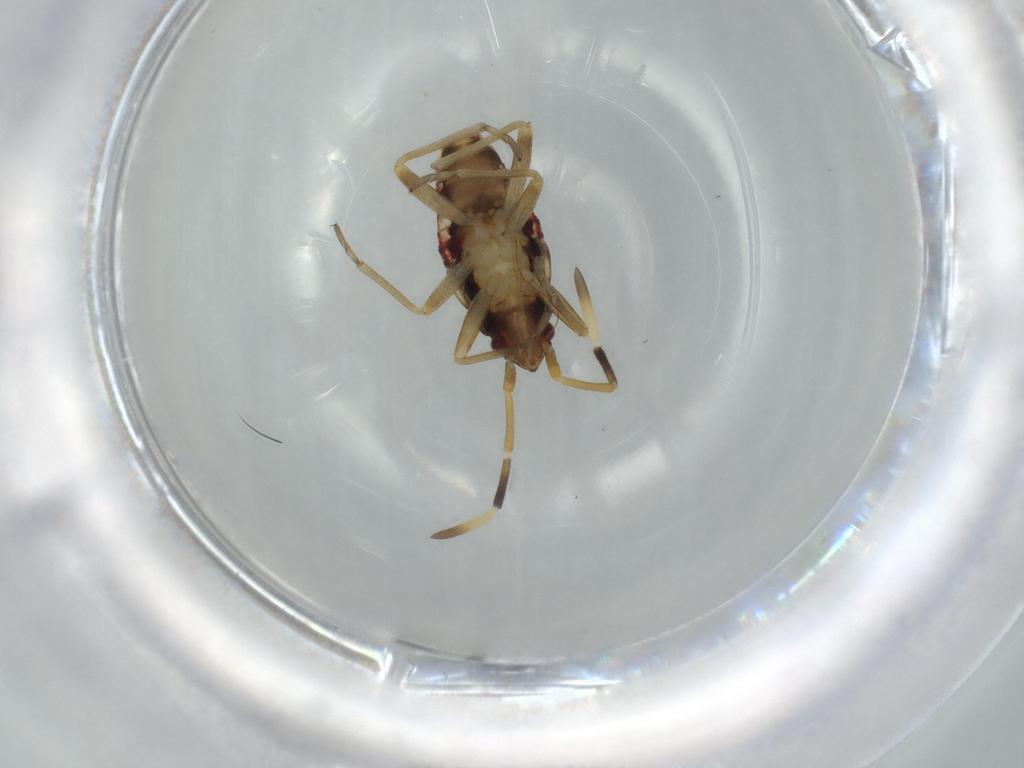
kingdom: Animalia
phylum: Arthropoda
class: Insecta
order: Hemiptera
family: Rhyparochromidae
